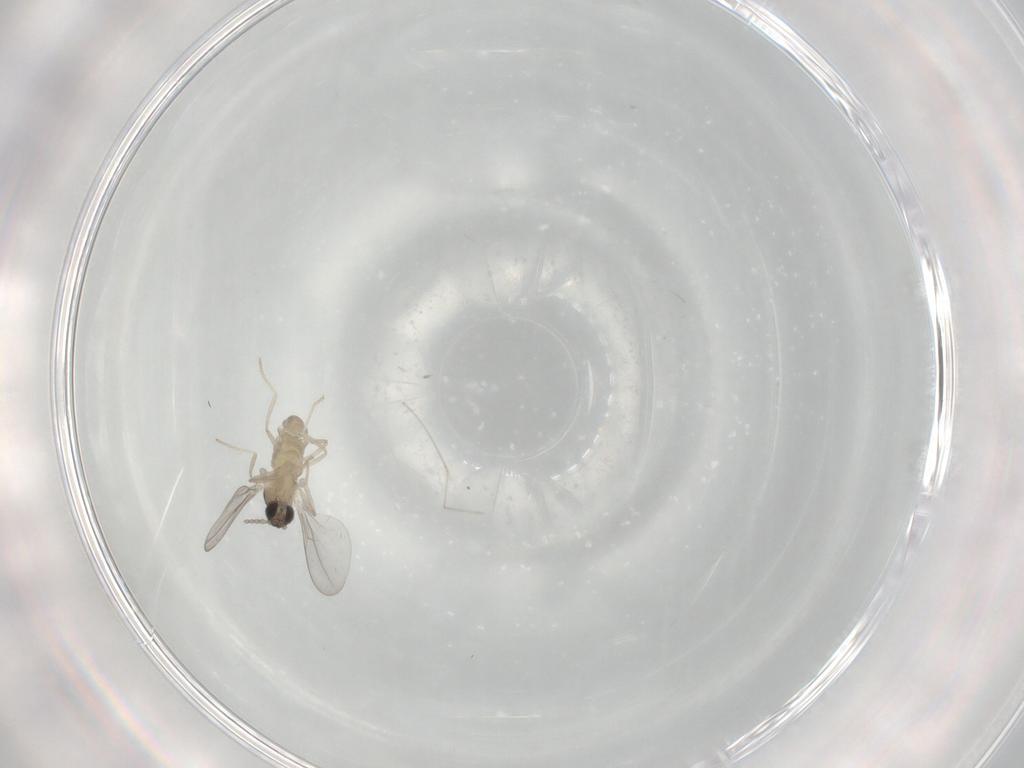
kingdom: Animalia
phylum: Arthropoda
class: Insecta
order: Diptera
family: Cecidomyiidae
